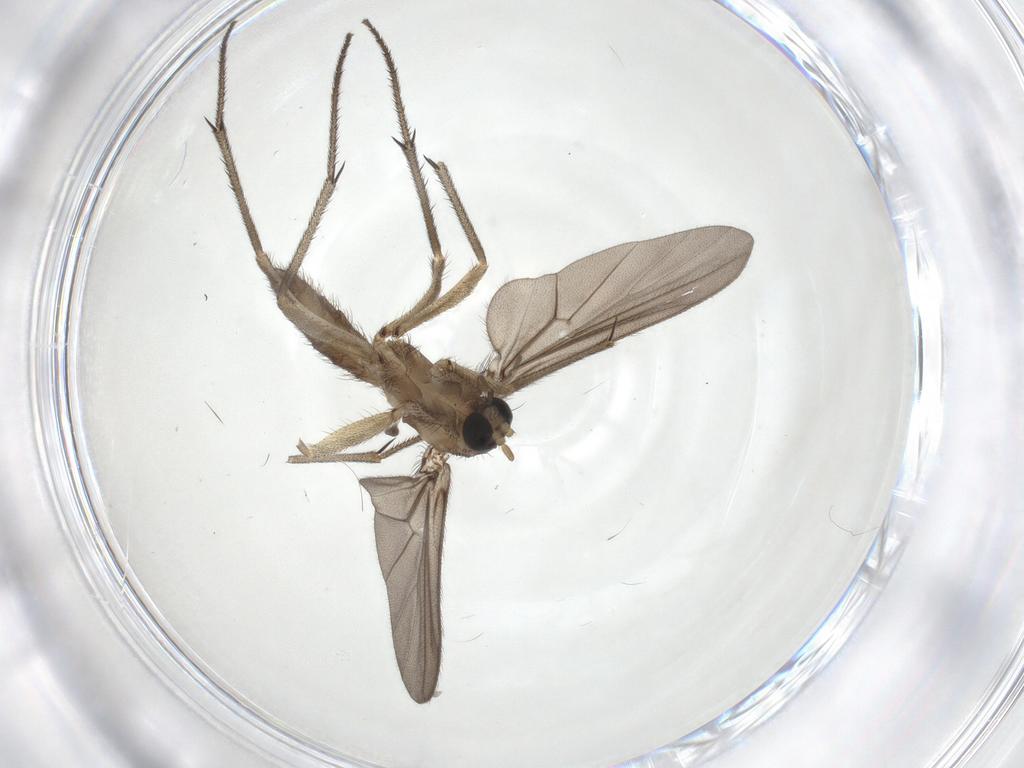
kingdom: Animalia
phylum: Arthropoda
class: Insecta
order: Diptera
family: Chironomidae
